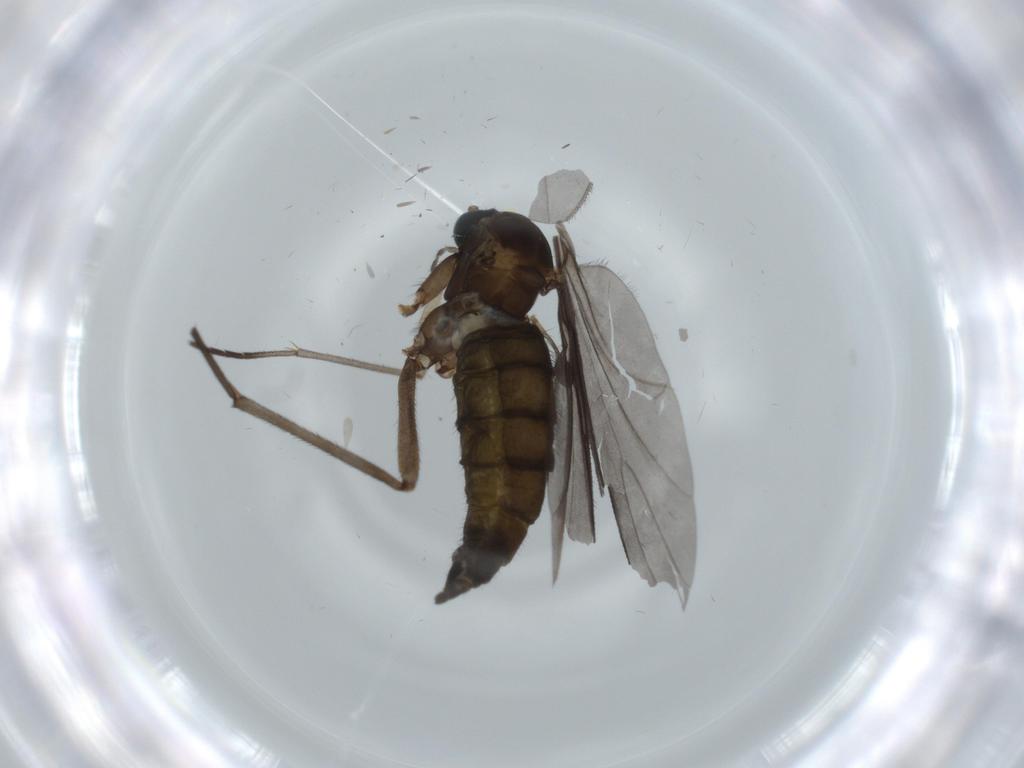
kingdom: Animalia
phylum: Arthropoda
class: Insecta
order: Diptera
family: Sciaridae
